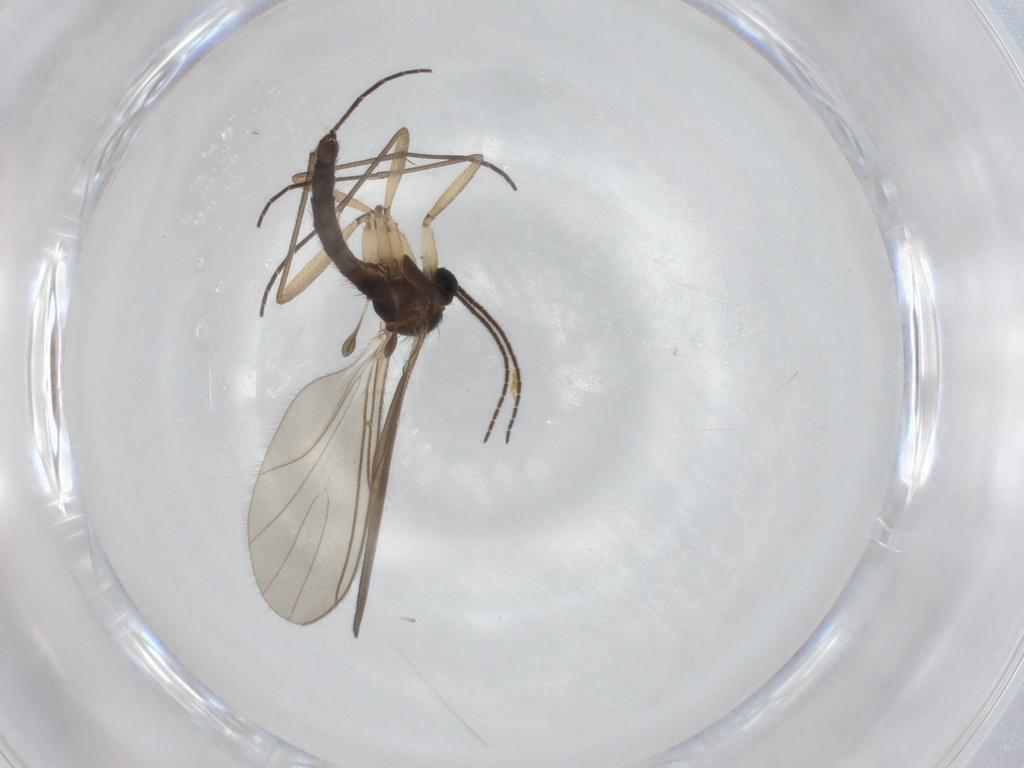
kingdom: Animalia
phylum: Arthropoda
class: Insecta
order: Diptera
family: Sciaridae
